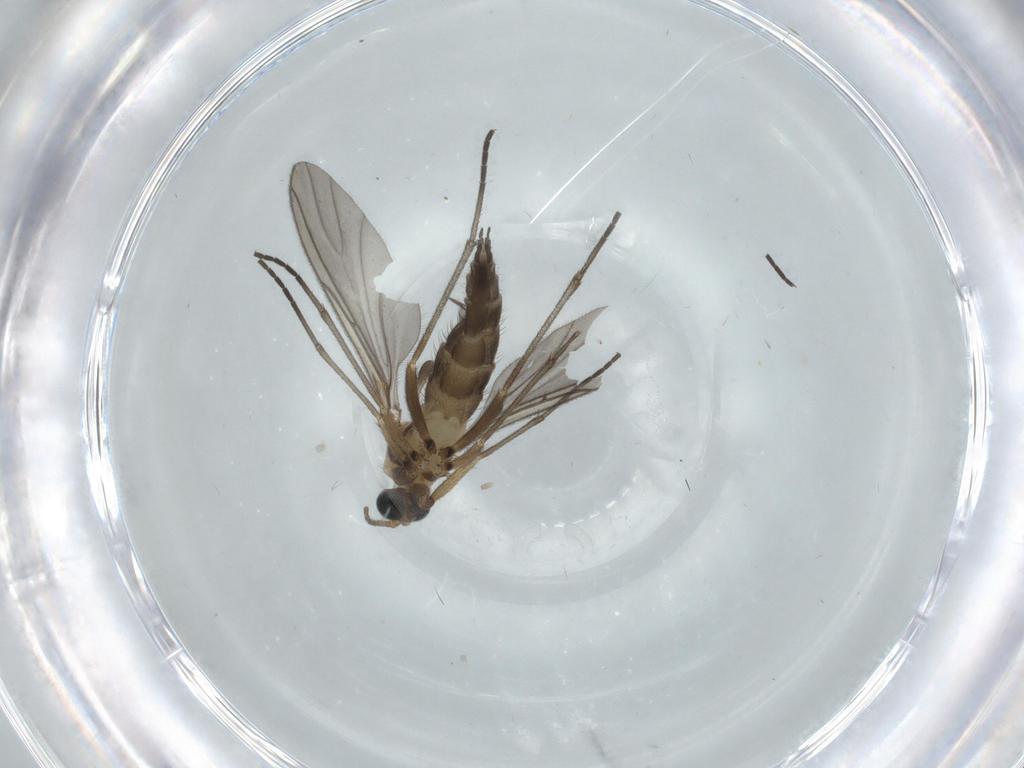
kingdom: Animalia
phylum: Arthropoda
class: Insecta
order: Diptera
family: Sciaridae
